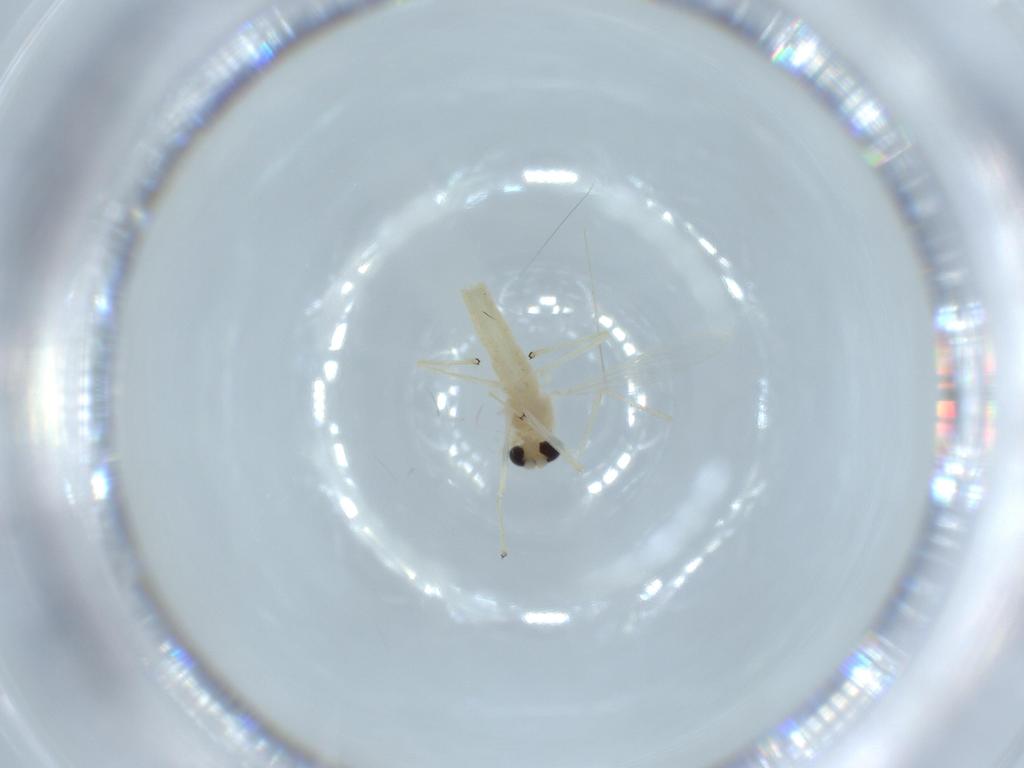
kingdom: Animalia
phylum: Arthropoda
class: Insecta
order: Diptera
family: Chironomidae
